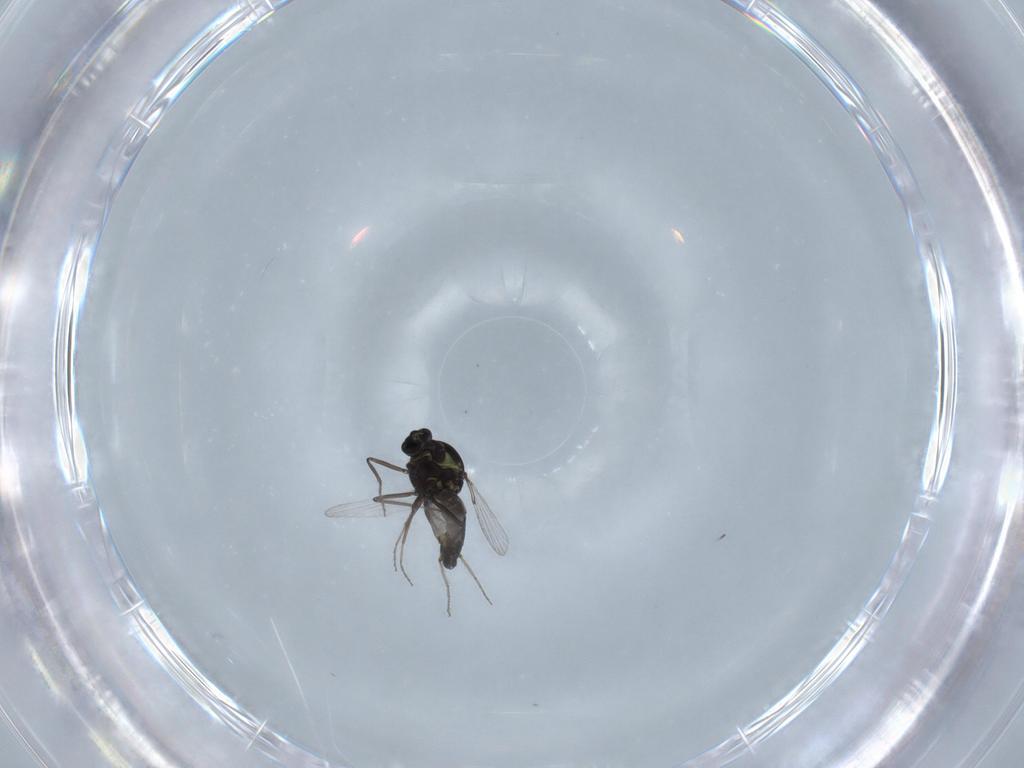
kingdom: Animalia
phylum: Arthropoda
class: Insecta
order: Diptera
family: Ceratopogonidae
